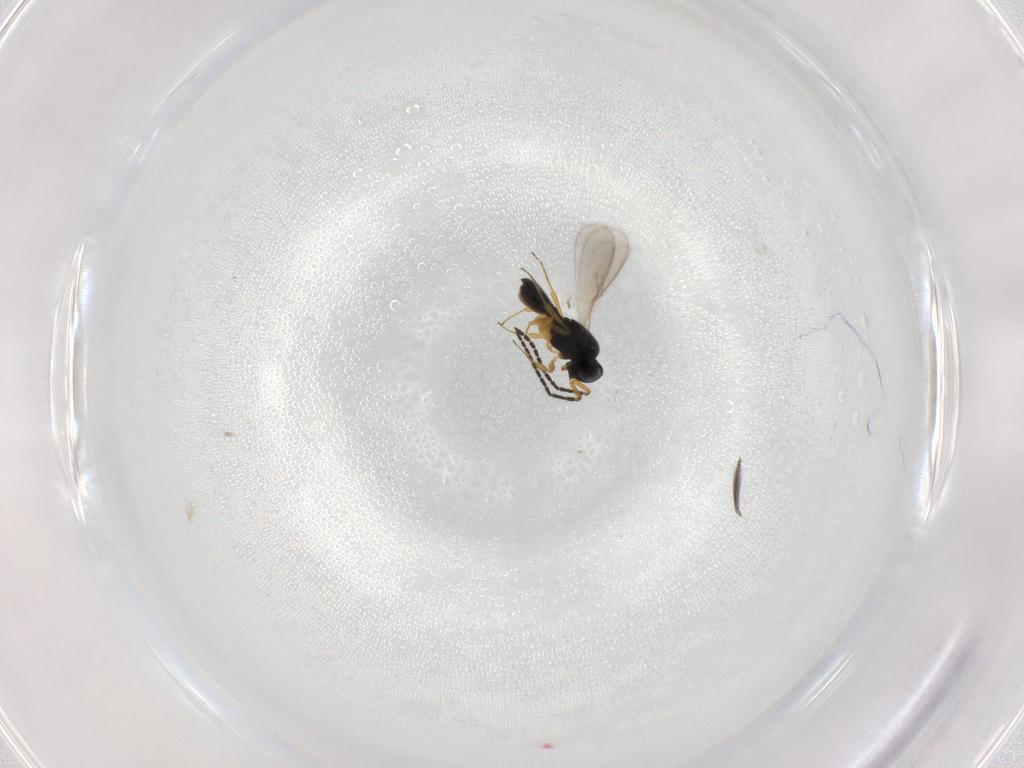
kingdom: Animalia
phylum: Arthropoda
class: Insecta
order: Hymenoptera
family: Scelionidae
